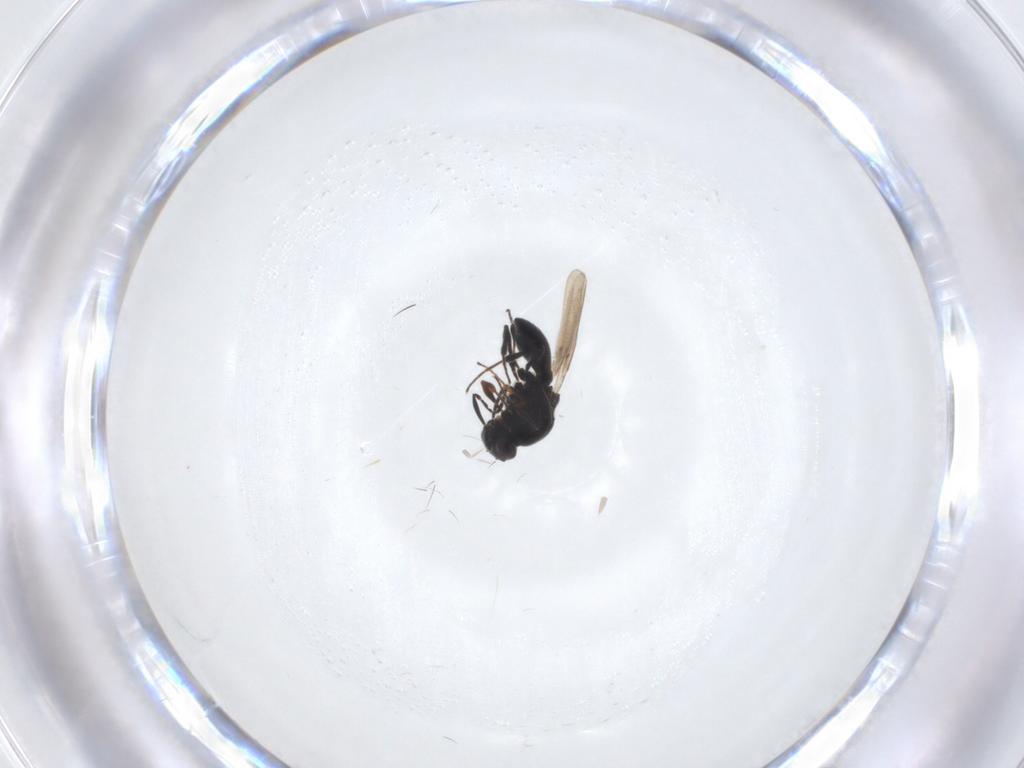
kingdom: Animalia
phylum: Arthropoda
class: Insecta
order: Hymenoptera
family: Platygastridae
